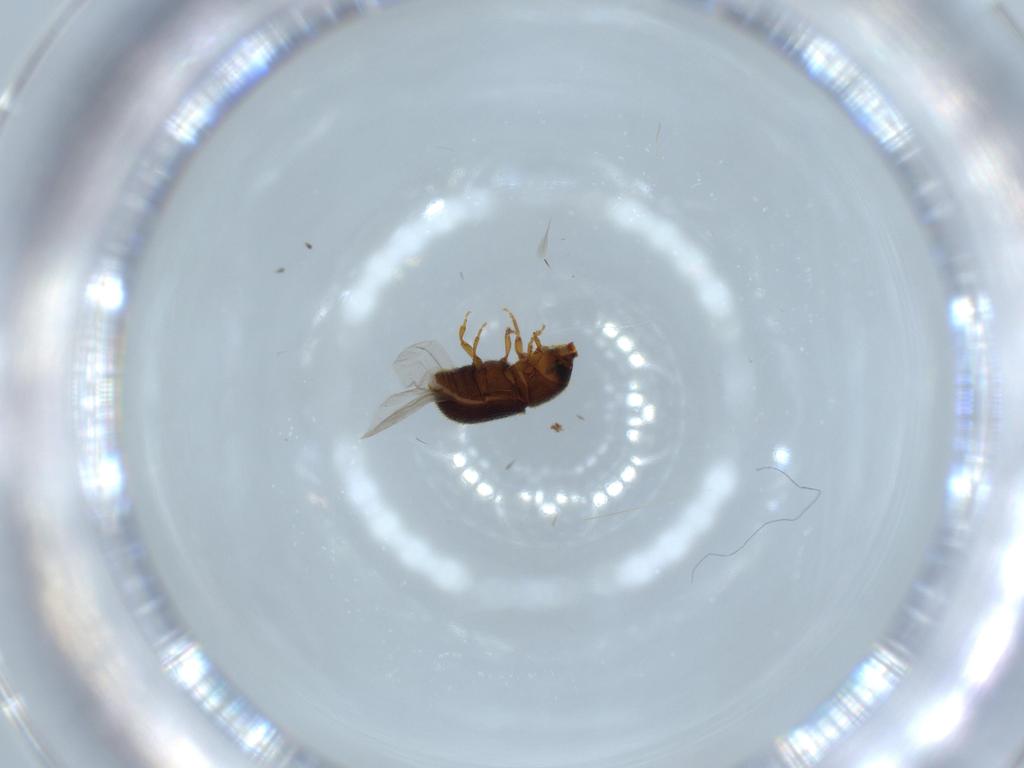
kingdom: Animalia
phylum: Arthropoda
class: Insecta
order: Coleoptera
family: Curculionidae
